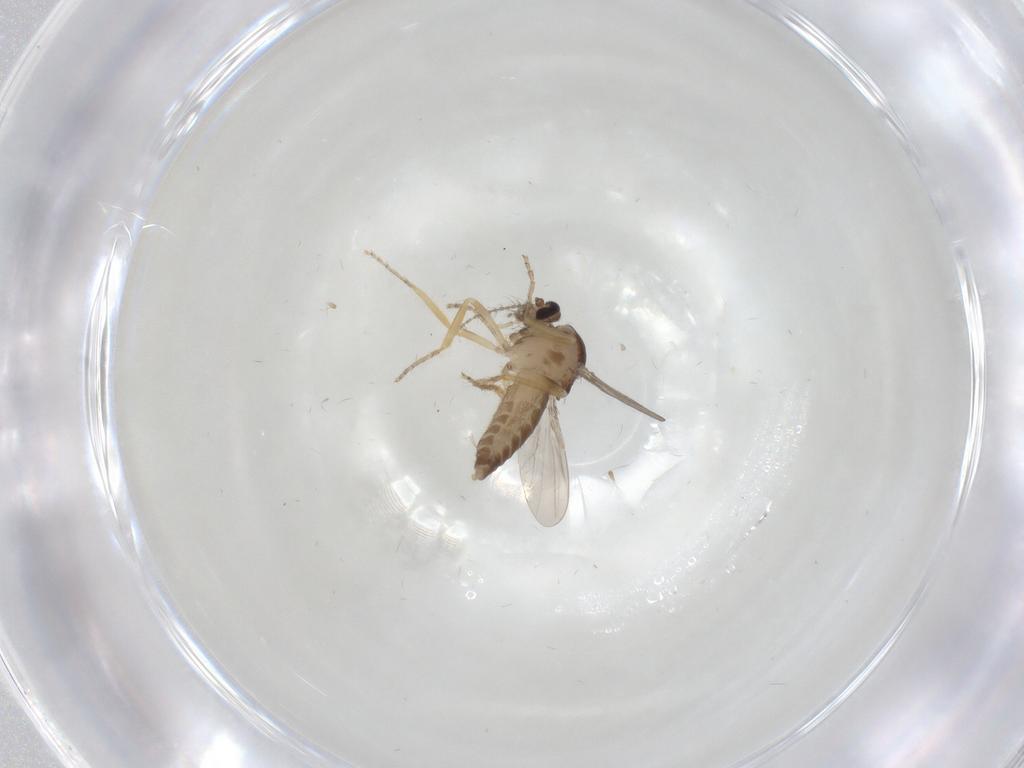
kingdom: Animalia
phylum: Arthropoda
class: Insecta
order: Diptera
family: Ceratopogonidae
